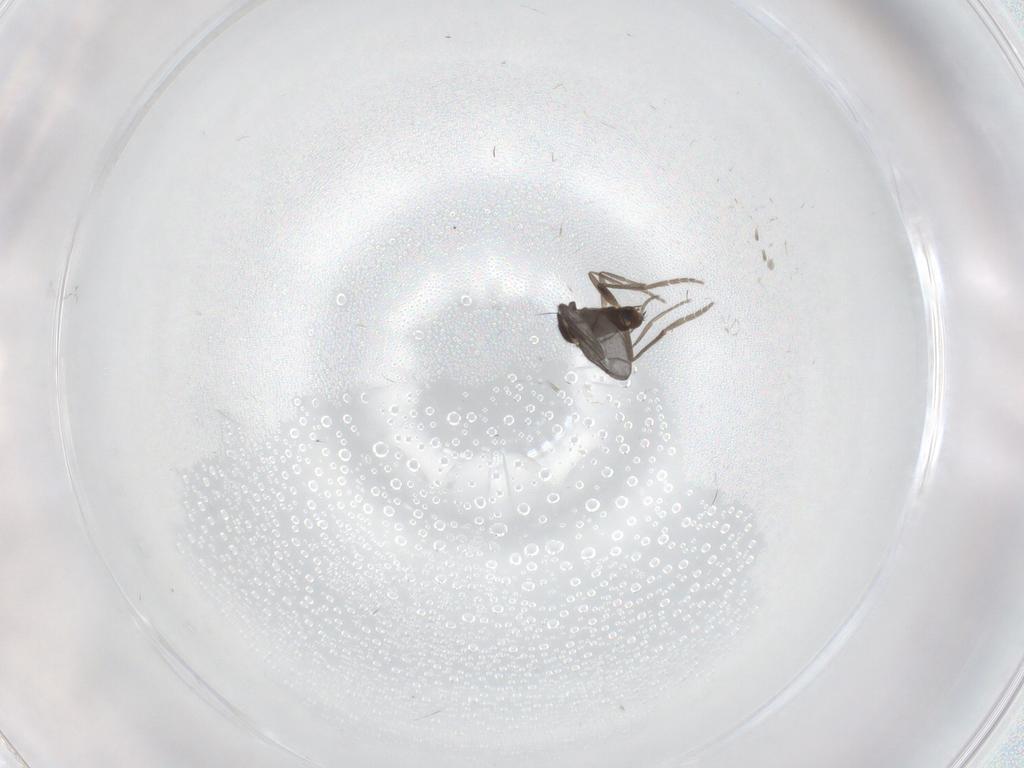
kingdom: Animalia
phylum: Arthropoda
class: Insecta
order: Diptera
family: Phoridae
